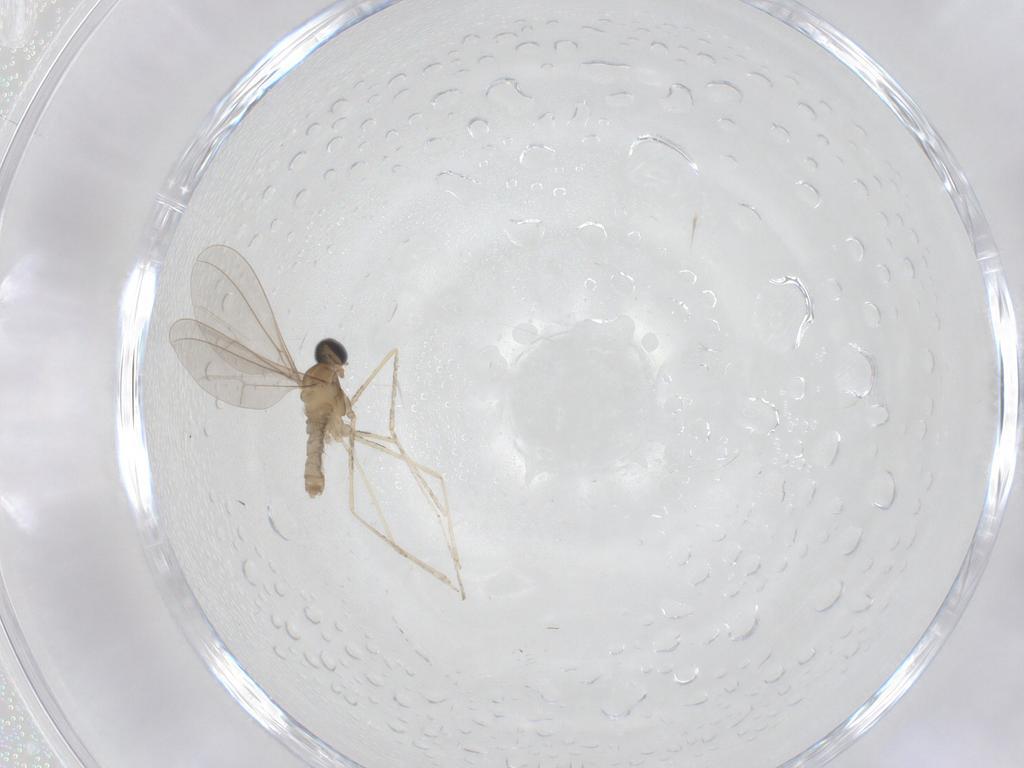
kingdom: Animalia
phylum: Arthropoda
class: Insecta
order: Diptera
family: Cecidomyiidae
